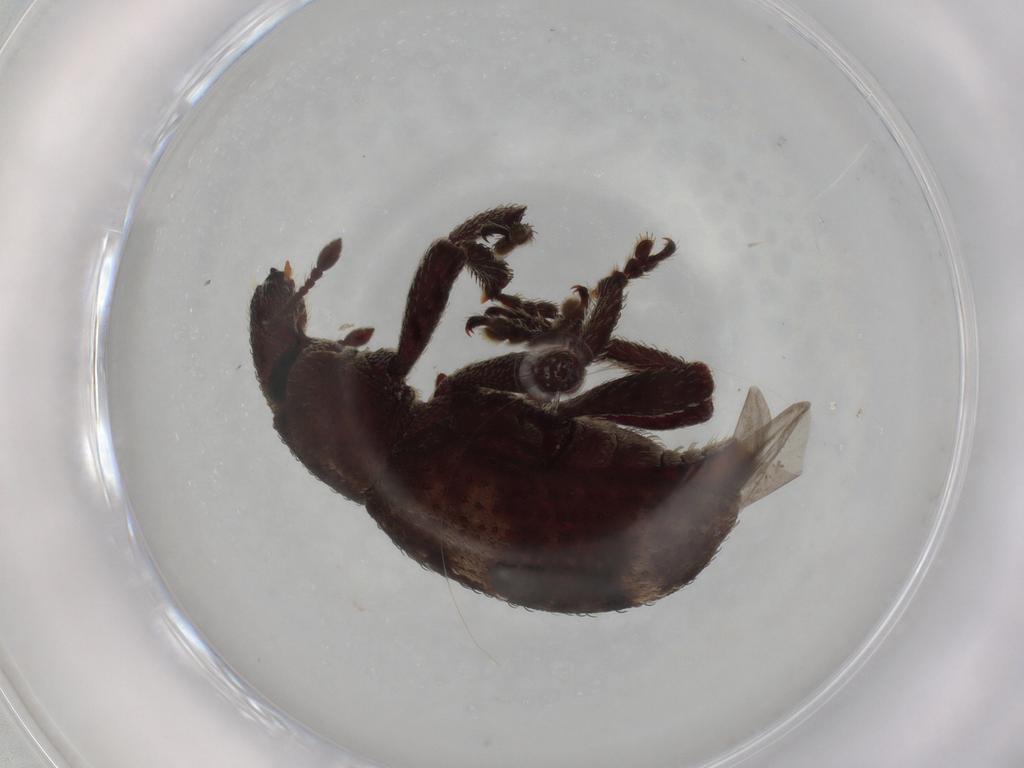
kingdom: Animalia
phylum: Arthropoda
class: Insecta
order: Coleoptera
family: Curculionidae
